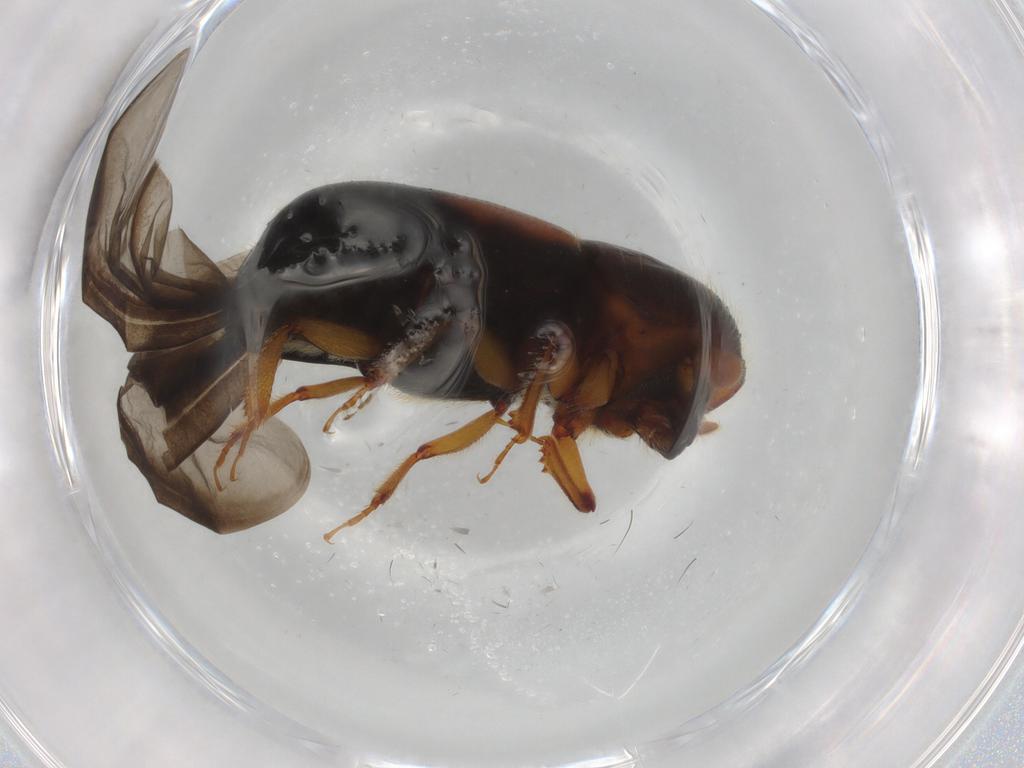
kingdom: Animalia
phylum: Arthropoda
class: Insecta
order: Coleoptera
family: Curculionidae
